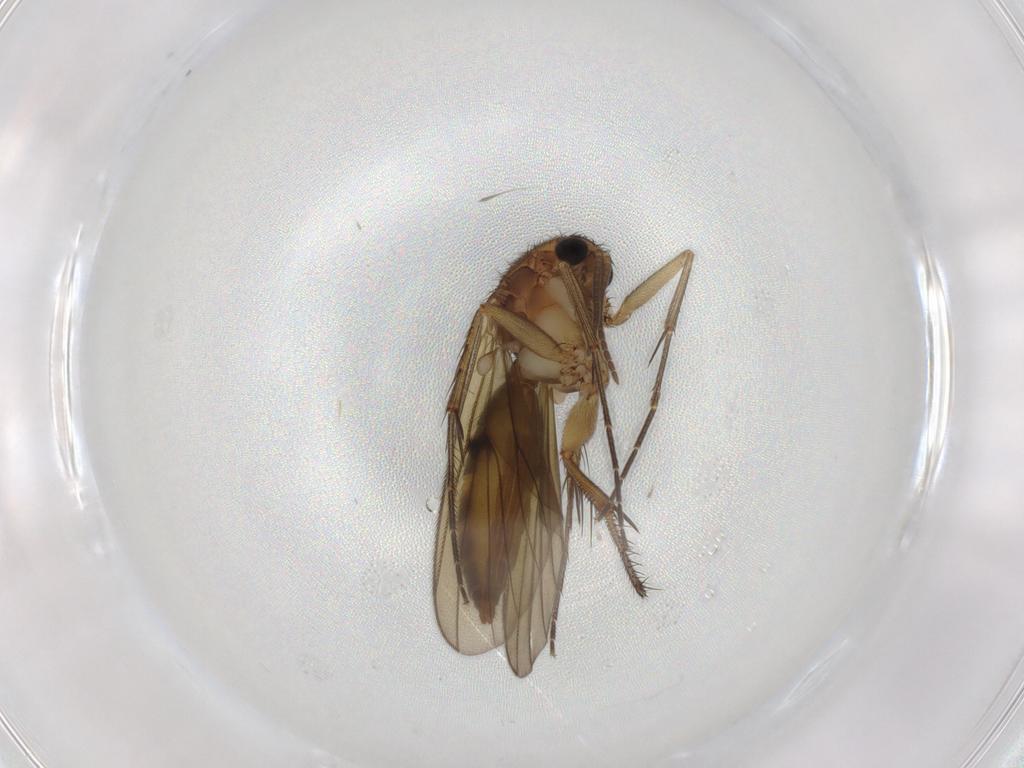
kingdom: Animalia
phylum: Arthropoda
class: Insecta
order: Diptera
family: Mycetophilidae
